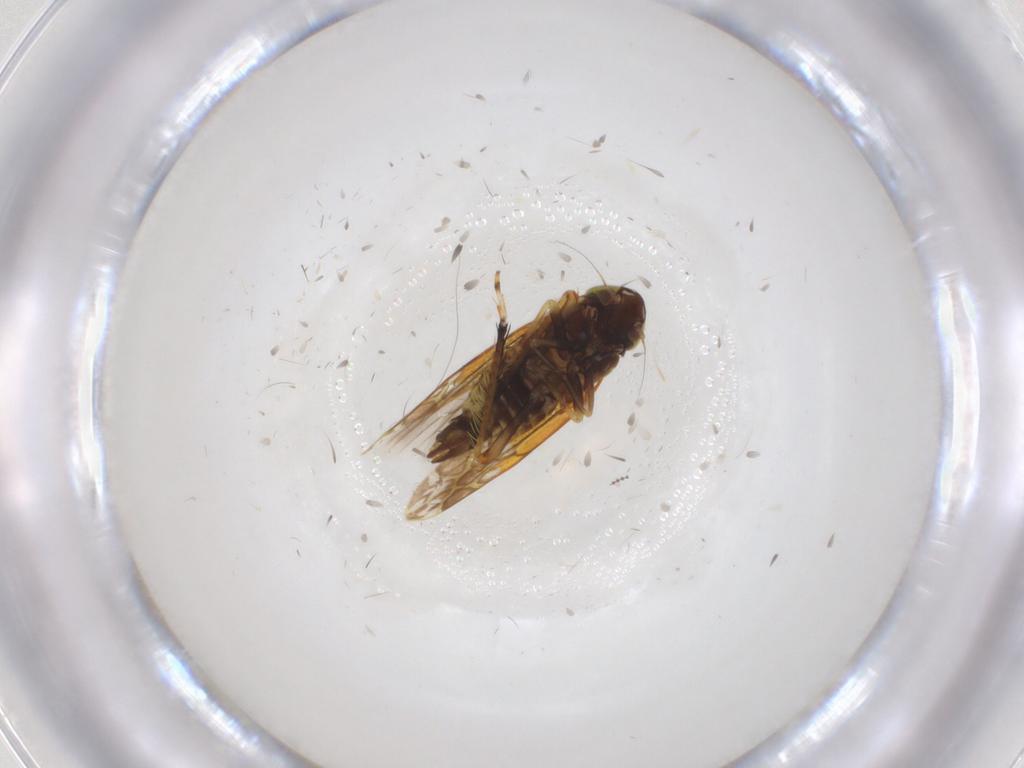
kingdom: Animalia
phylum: Arthropoda
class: Insecta
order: Hemiptera
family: Cicadellidae
